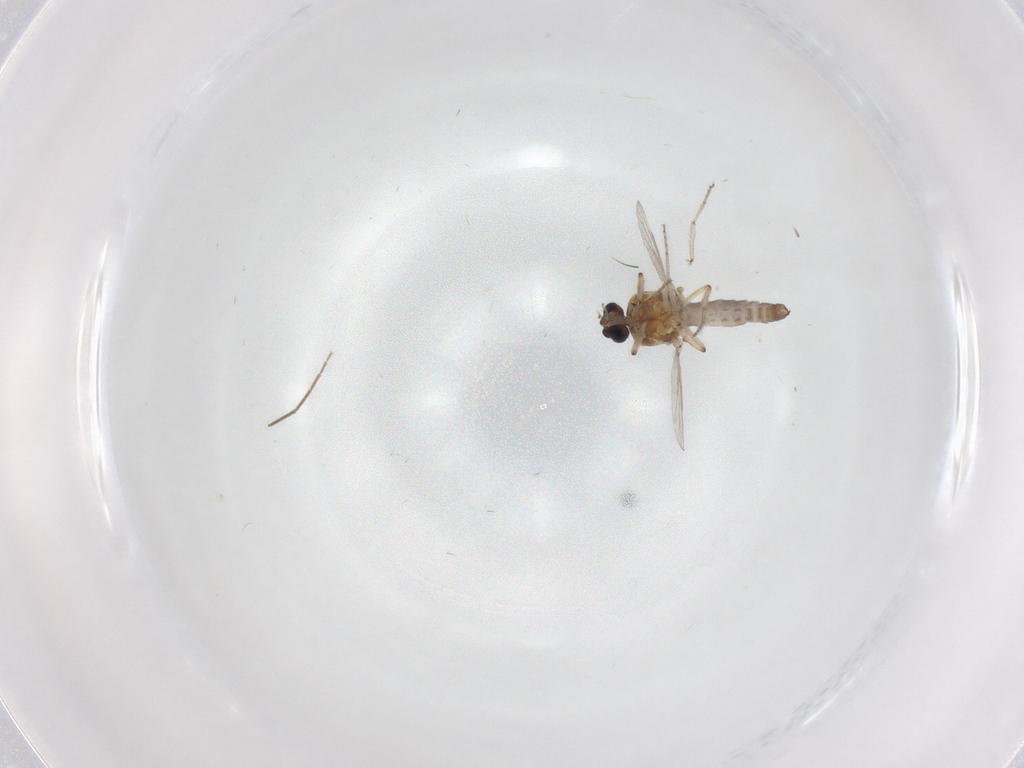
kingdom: Animalia
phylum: Arthropoda
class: Insecta
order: Diptera
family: Ceratopogonidae
